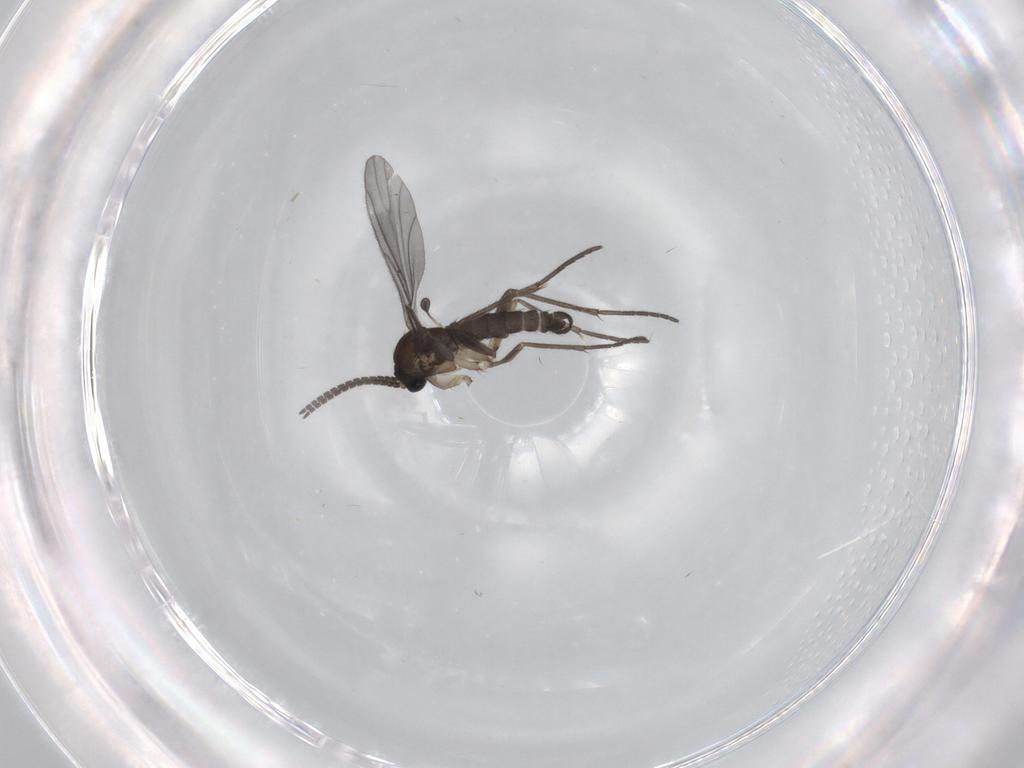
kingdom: Animalia
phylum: Arthropoda
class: Insecta
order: Diptera
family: Sciaridae
